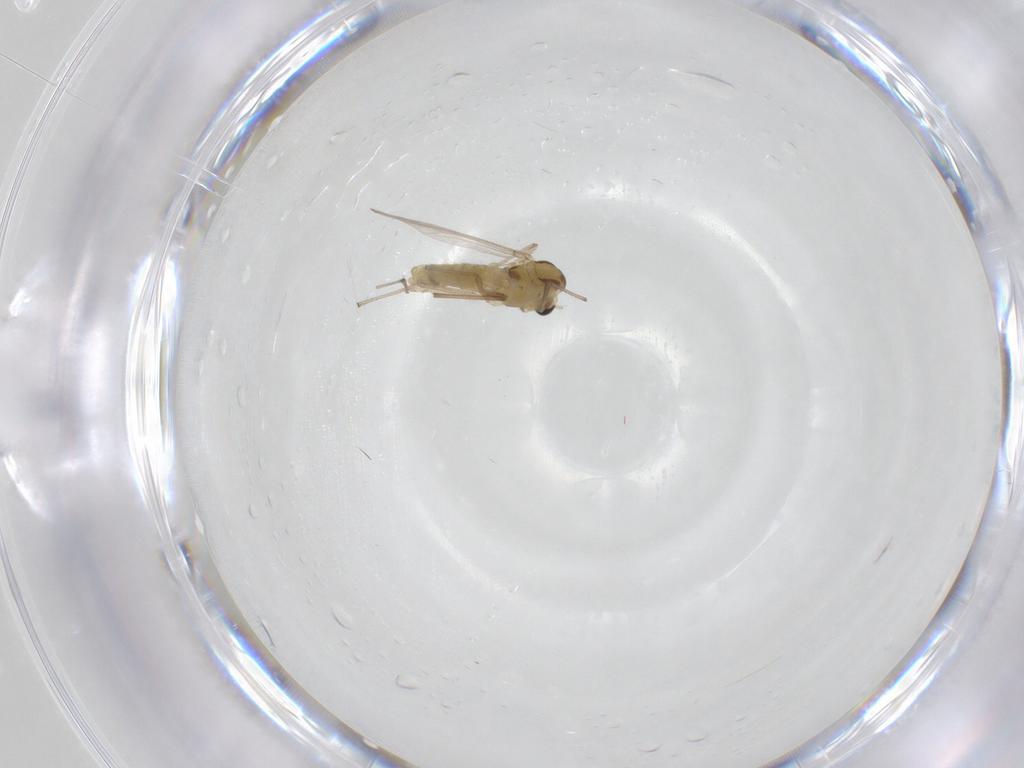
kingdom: Animalia
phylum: Arthropoda
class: Insecta
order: Diptera
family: Chironomidae
